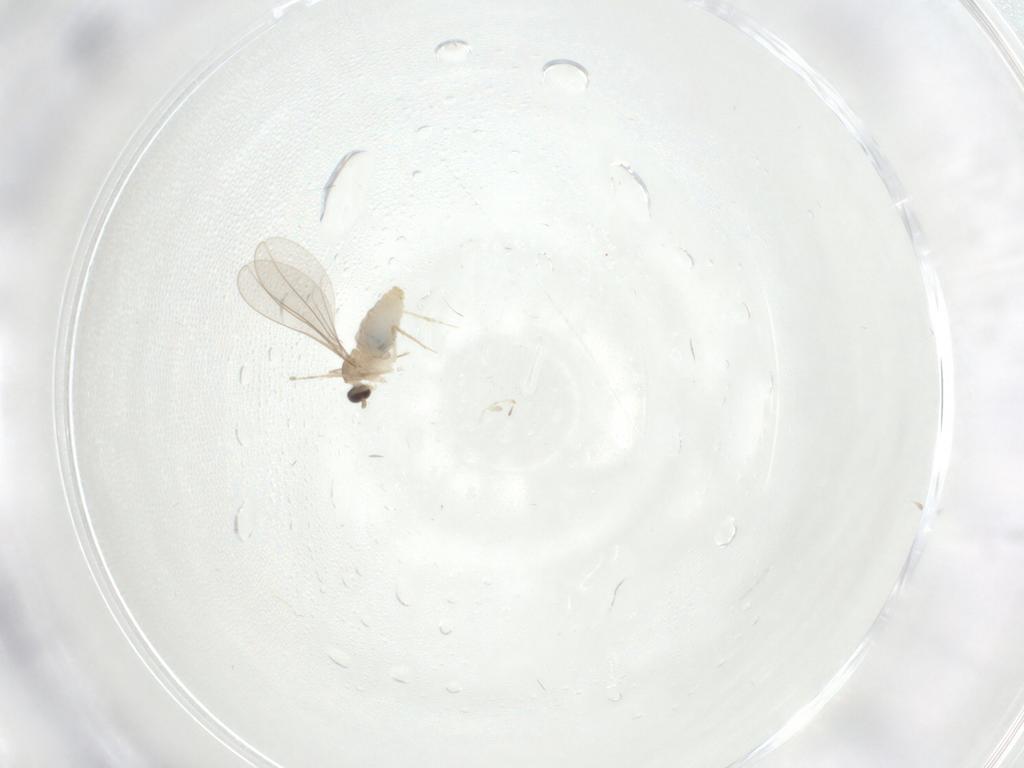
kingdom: Animalia
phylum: Arthropoda
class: Insecta
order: Diptera
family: Cecidomyiidae
